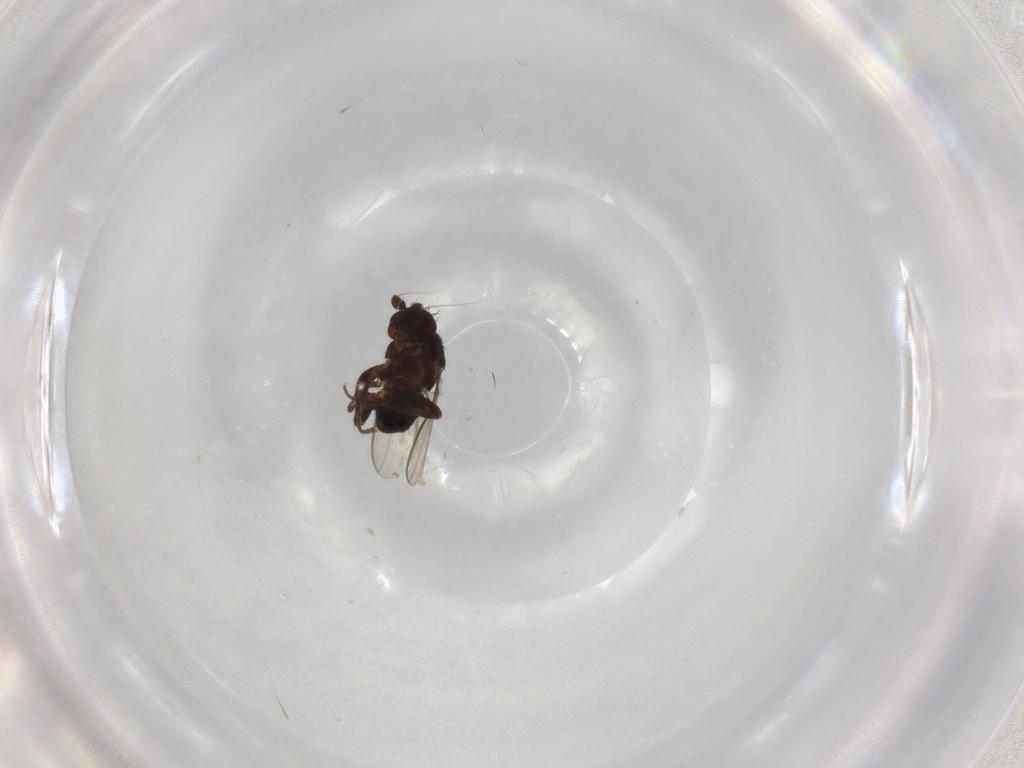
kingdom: Animalia
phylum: Arthropoda
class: Insecta
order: Diptera
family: Sphaeroceridae
